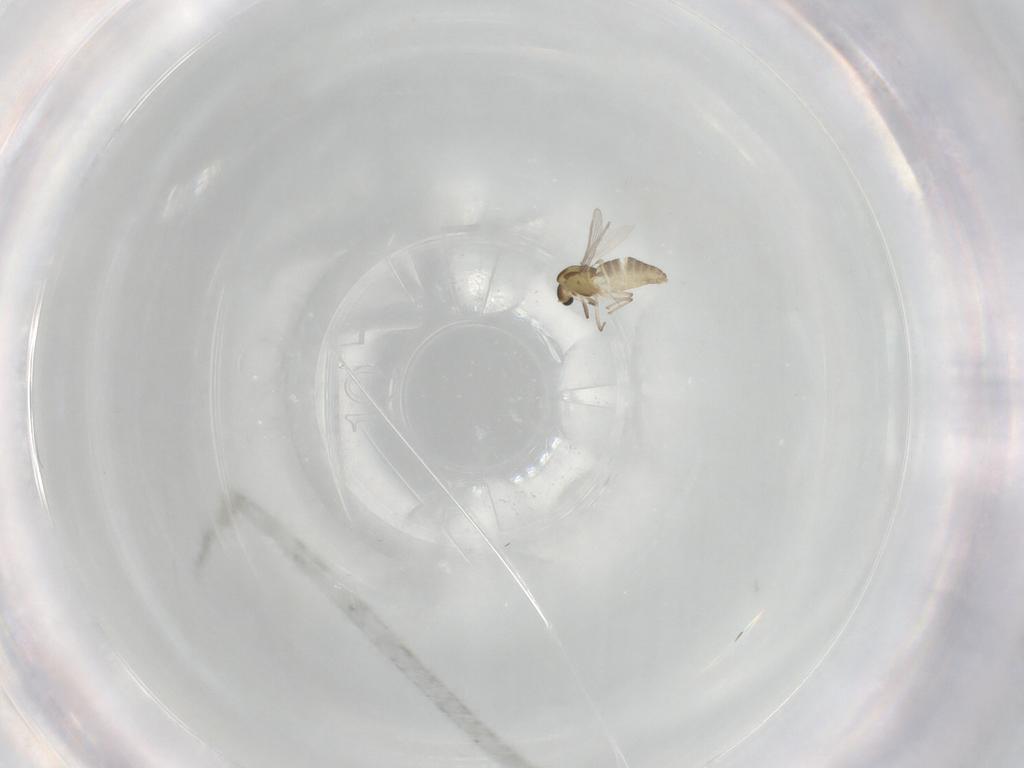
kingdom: Animalia
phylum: Arthropoda
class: Insecta
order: Diptera
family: Chironomidae
